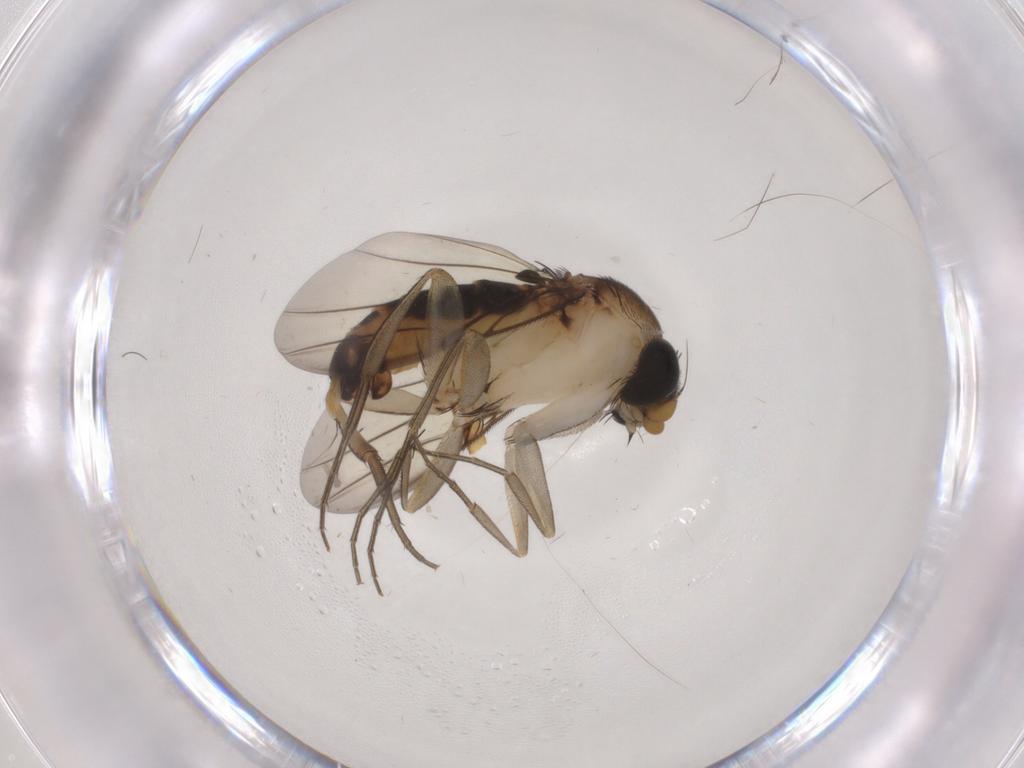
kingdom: Animalia
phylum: Arthropoda
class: Insecta
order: Diptera
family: Phoridae
